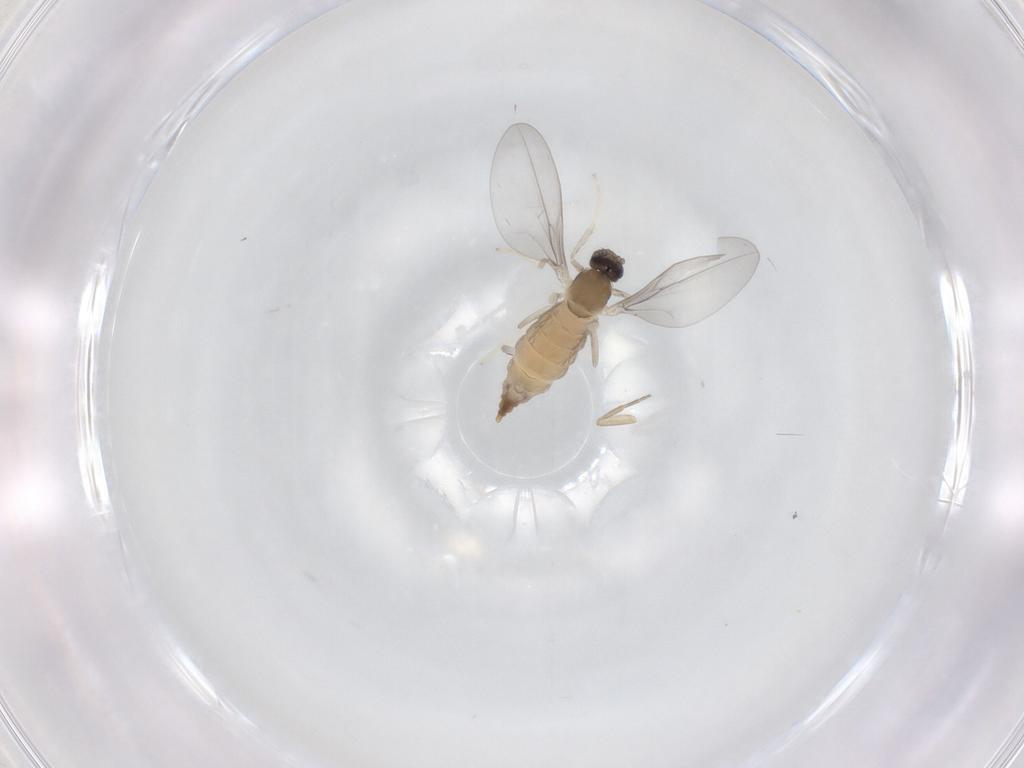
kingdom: Animalia
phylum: Arthropoda
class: Insecta
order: Diptera
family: Cecidomyiidae
